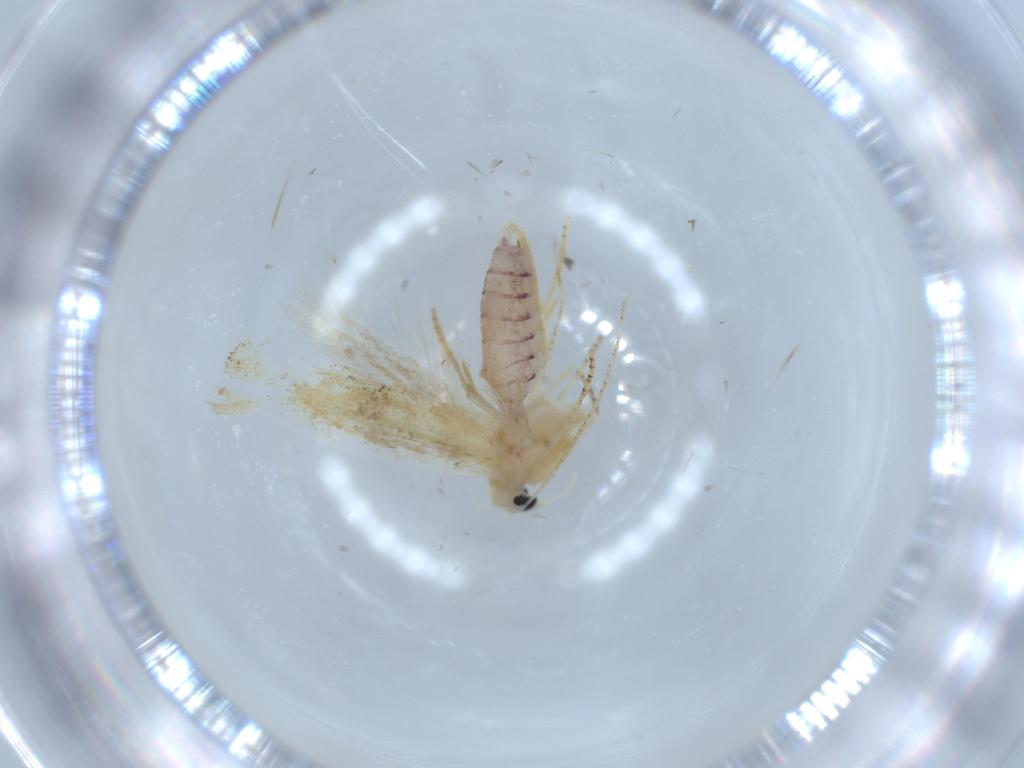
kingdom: Animalia
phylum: Arthropoda
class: Insecta
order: Lepidoptera
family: Bucculatricidae
